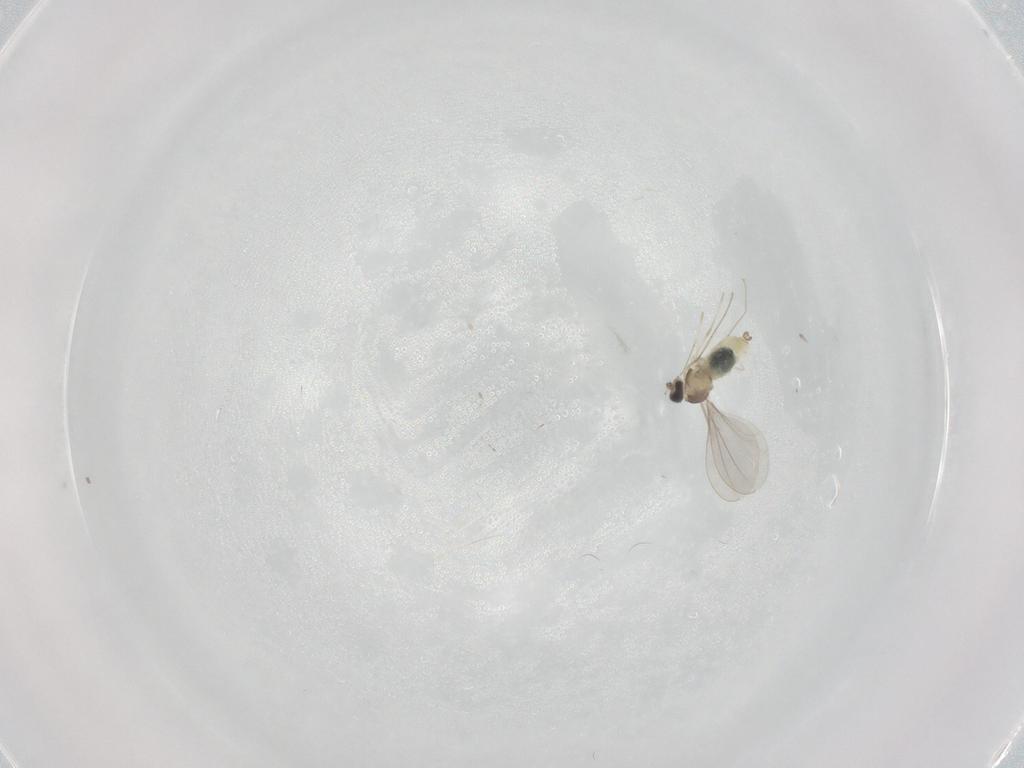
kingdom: Animalia
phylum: Arthropoda
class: Insecta
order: Diptera
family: Cecidomyiidae
